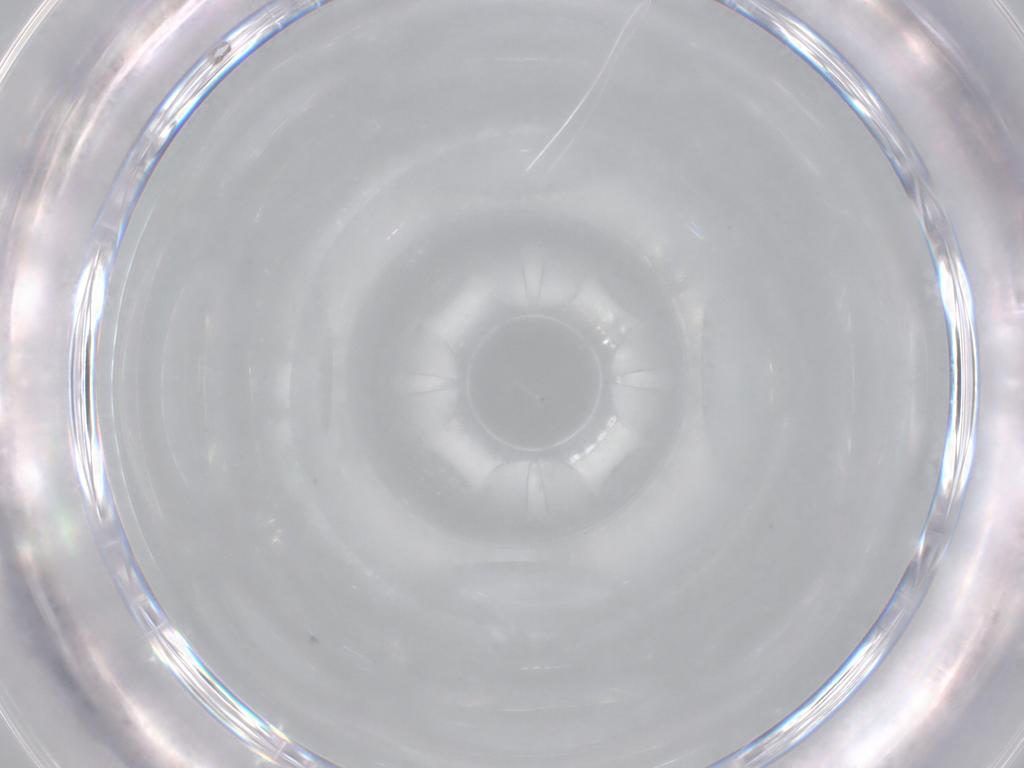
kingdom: Animalia
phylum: Arthropoda
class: Arachnida
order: Sarcoptiformes
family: Acaridae
